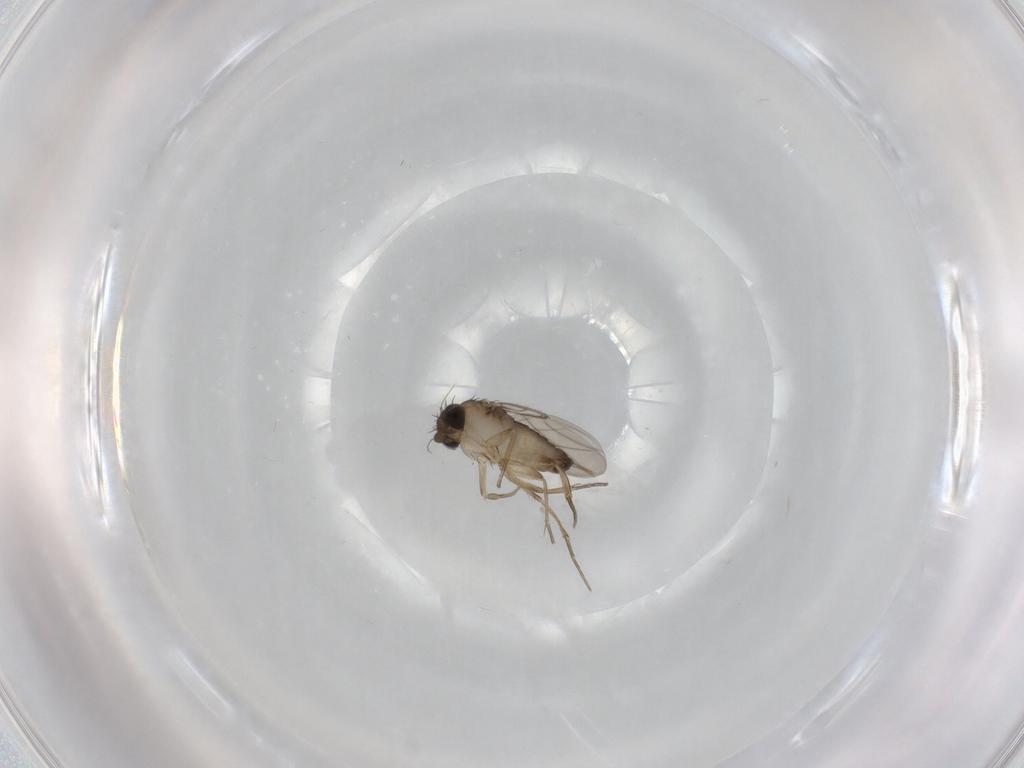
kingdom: Animalia
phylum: Arthropoda
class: Insecta
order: Diptera
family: Phoridae
